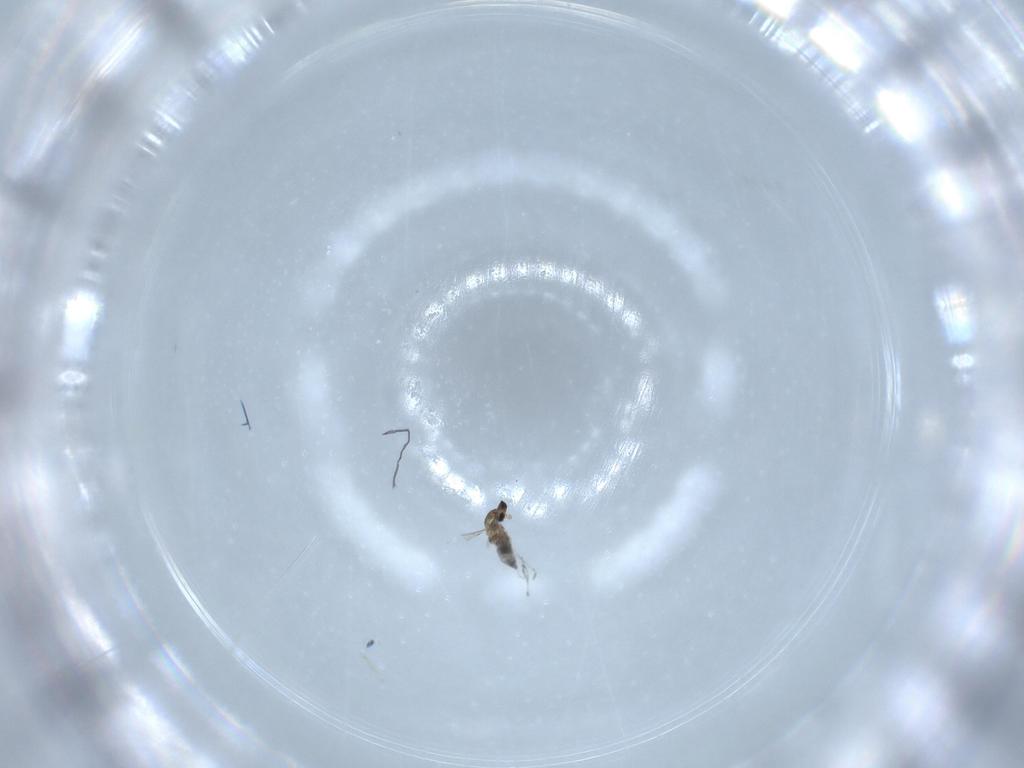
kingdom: Animalia
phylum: Arthropoda
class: Insecta
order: Diptera
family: Cecidomyiidae
